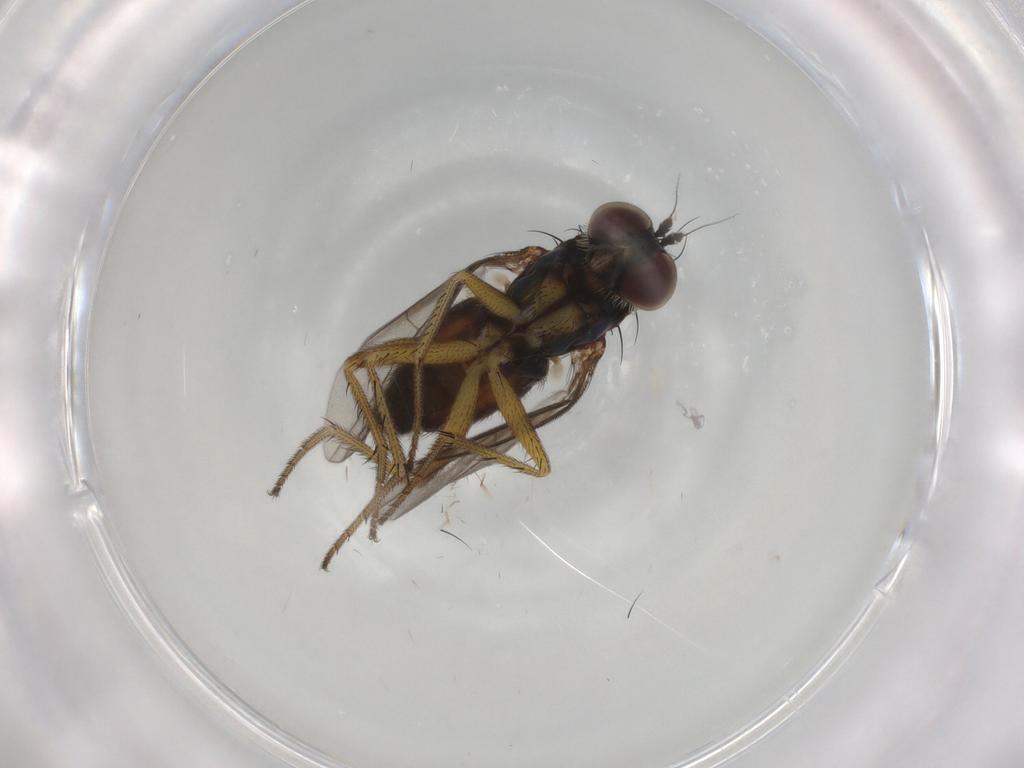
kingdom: Animalia
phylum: Arthropoda
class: Insecta
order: Diptera
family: Dolichopodidae
